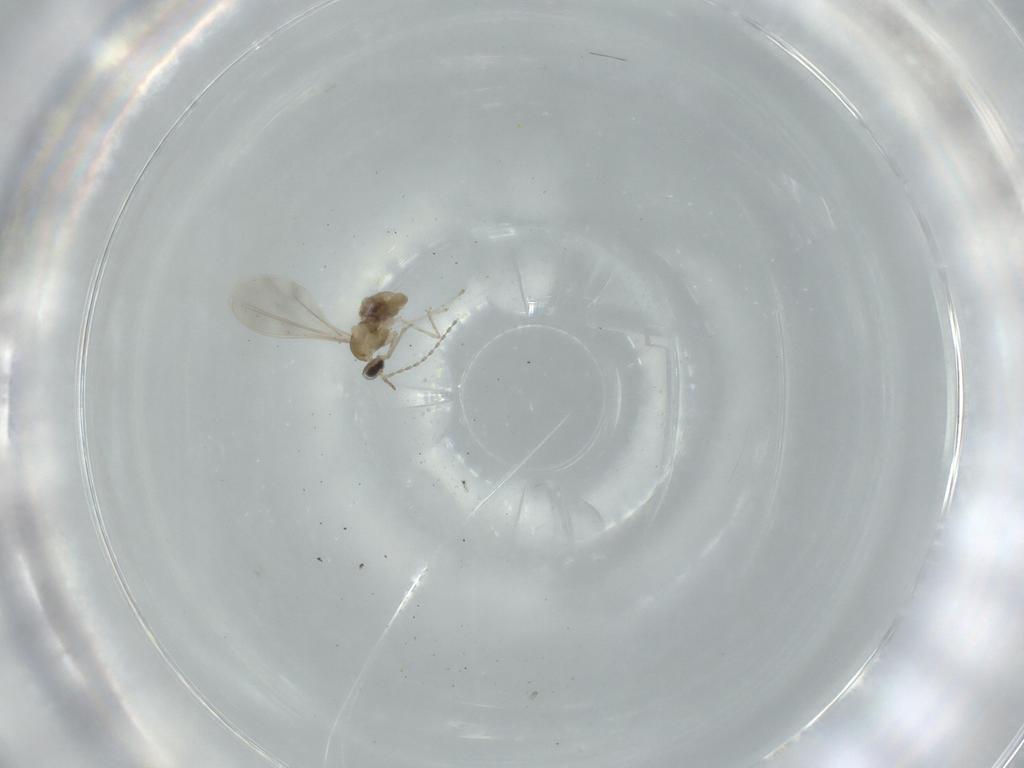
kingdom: Animalia
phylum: Arthropoda
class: Insecta
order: Diptera
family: Cecidomyiidae
